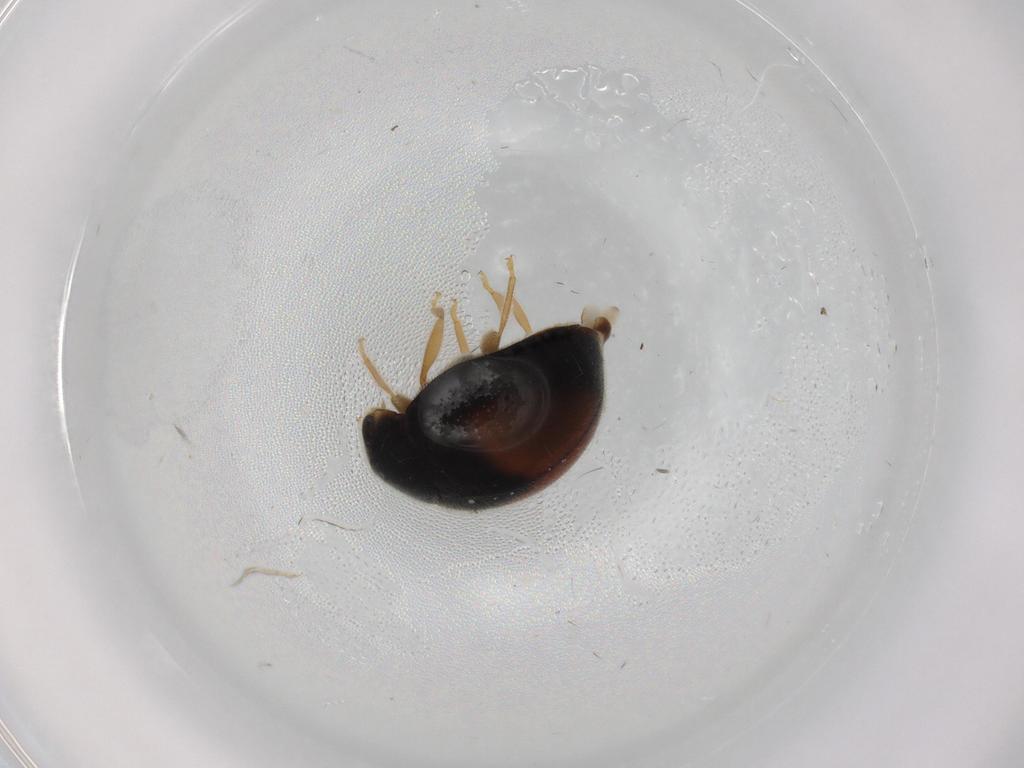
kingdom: Animalia
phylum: Arthropoda
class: Insecta
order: Coleoptera
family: Coccinellidae
